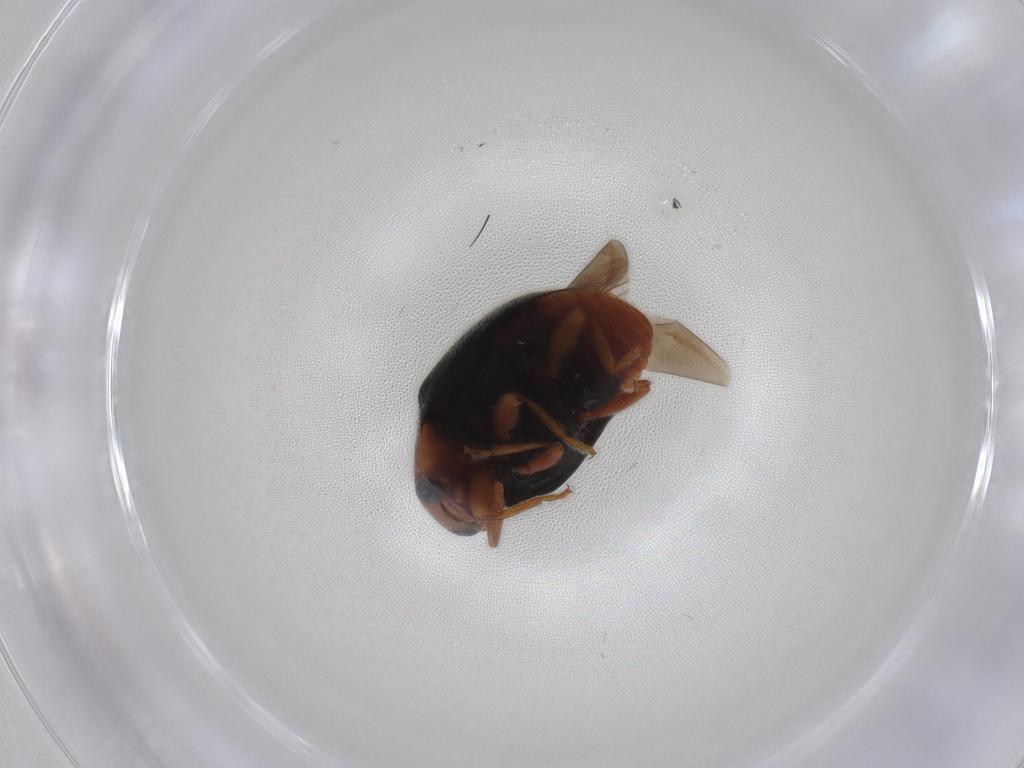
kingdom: Animalia
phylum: Arthropoda
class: Insecta
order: Coleoptera
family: Coccinellidae
